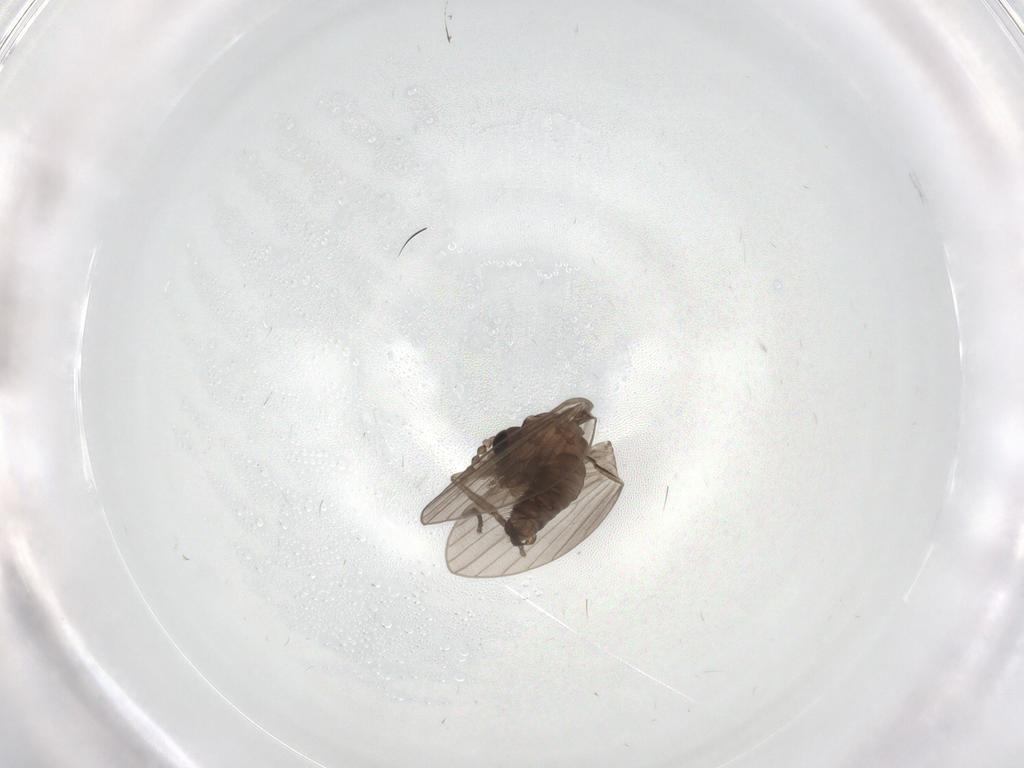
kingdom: Animalia
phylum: Arthropoda
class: Insecta
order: Diptera
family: Psychodidae
